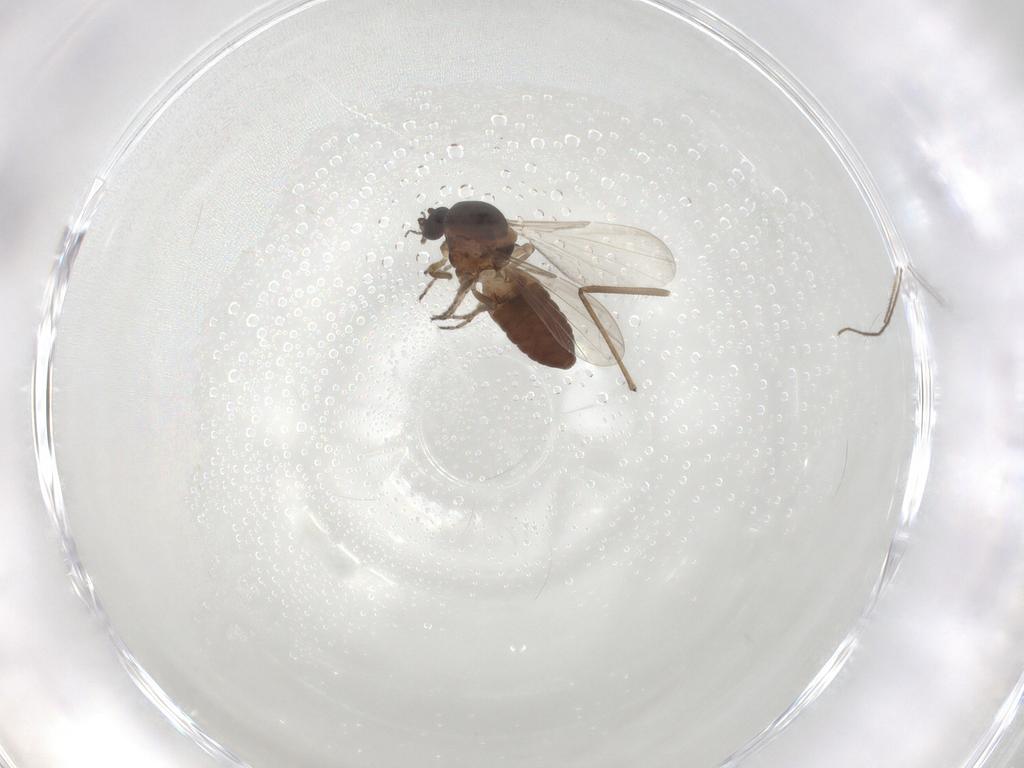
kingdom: Animalia
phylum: Arthropoda
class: Insecta
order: Diptera
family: Ceratopogonidae
